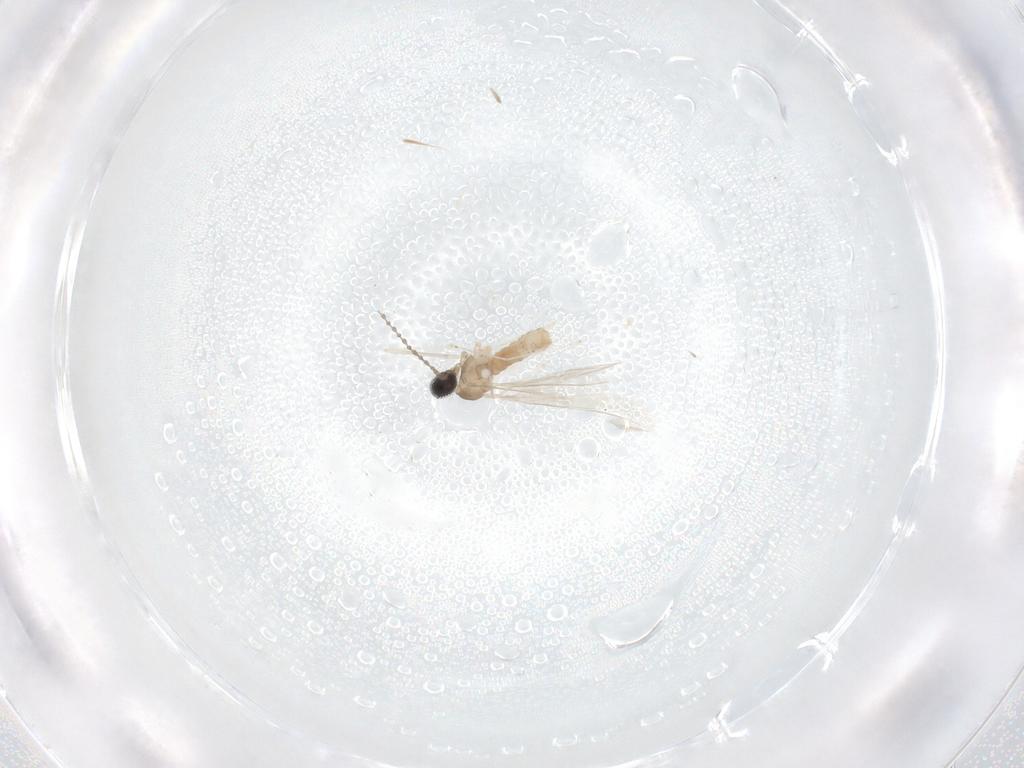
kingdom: Animalia
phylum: Arthropoda
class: Insecta
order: Diptera
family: Cecidomyiidae
